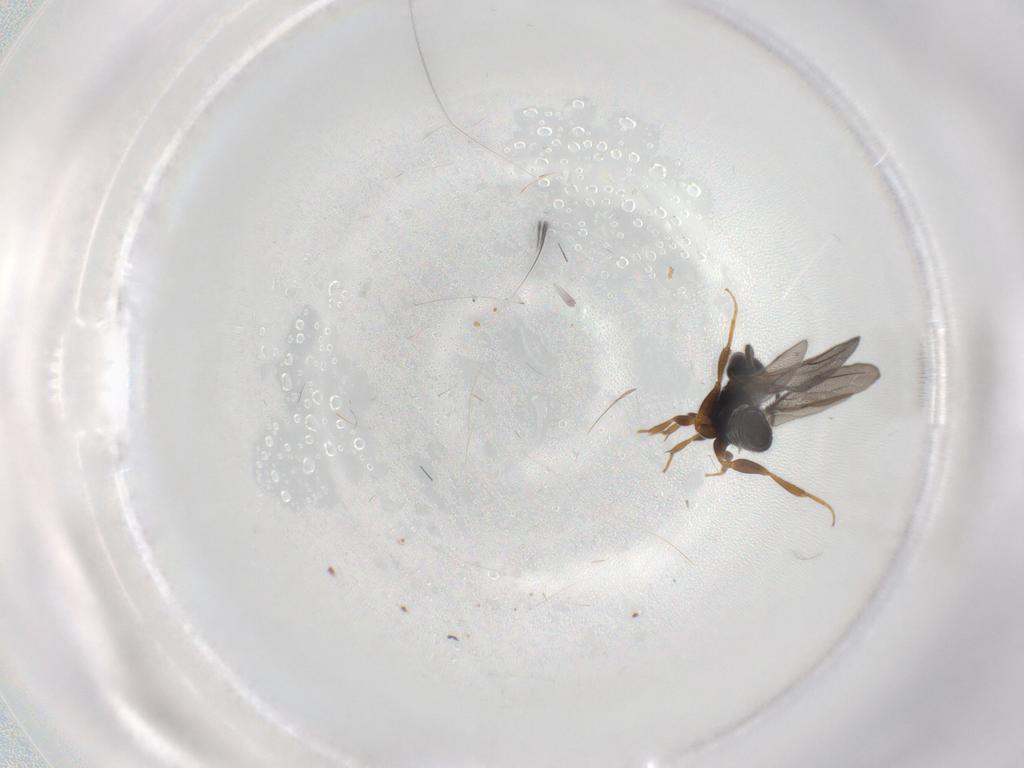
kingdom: Animalia
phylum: Arthropoda
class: Insecta
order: Hymenoptera
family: Bethylidae
